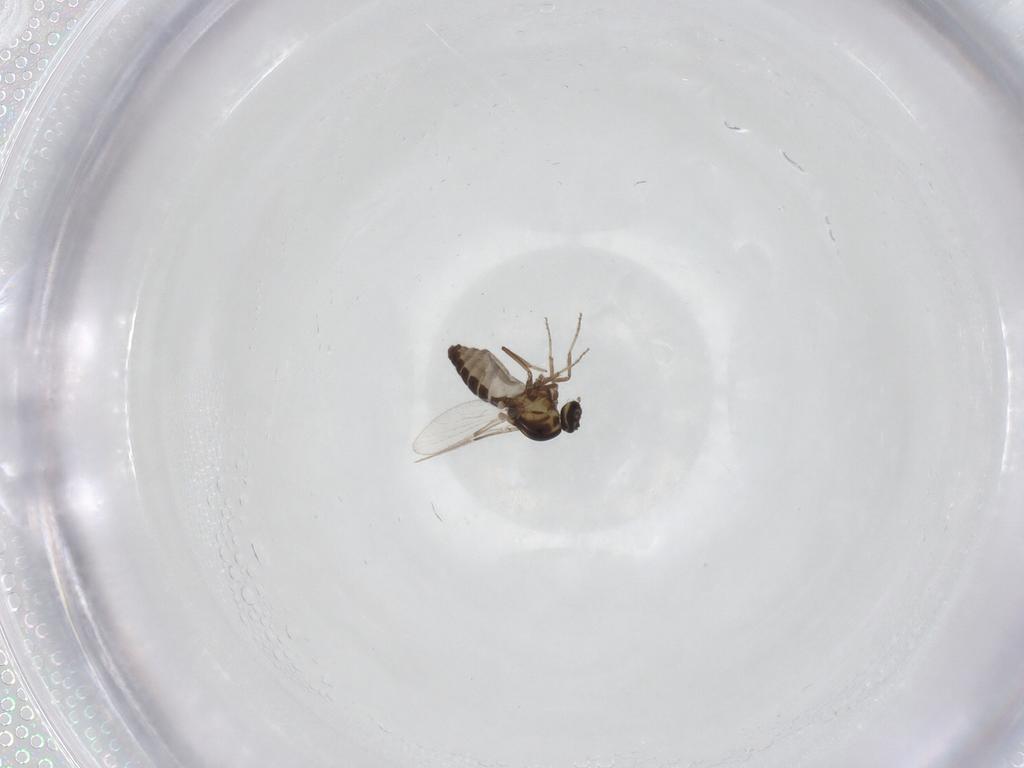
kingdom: Animalia
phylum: Arthropoda
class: Insecta
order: Diptera
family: Ceratopogonidae
